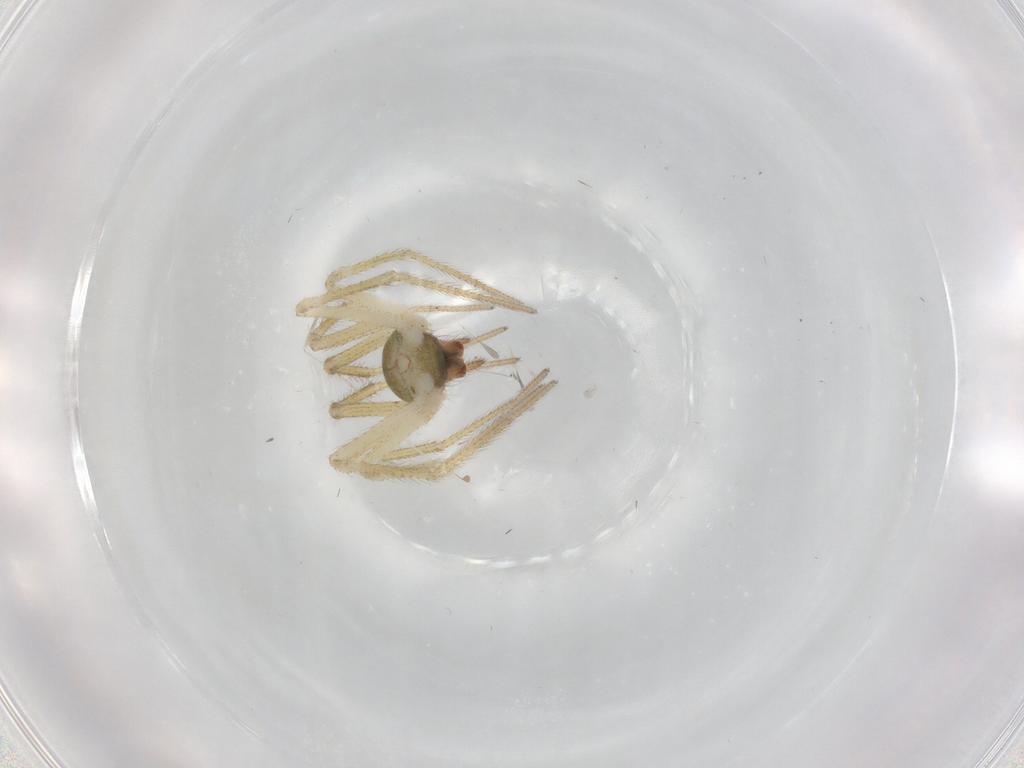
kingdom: Animalia
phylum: Arthropoda
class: Arachnida
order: Araneae
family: Linyphiidae
